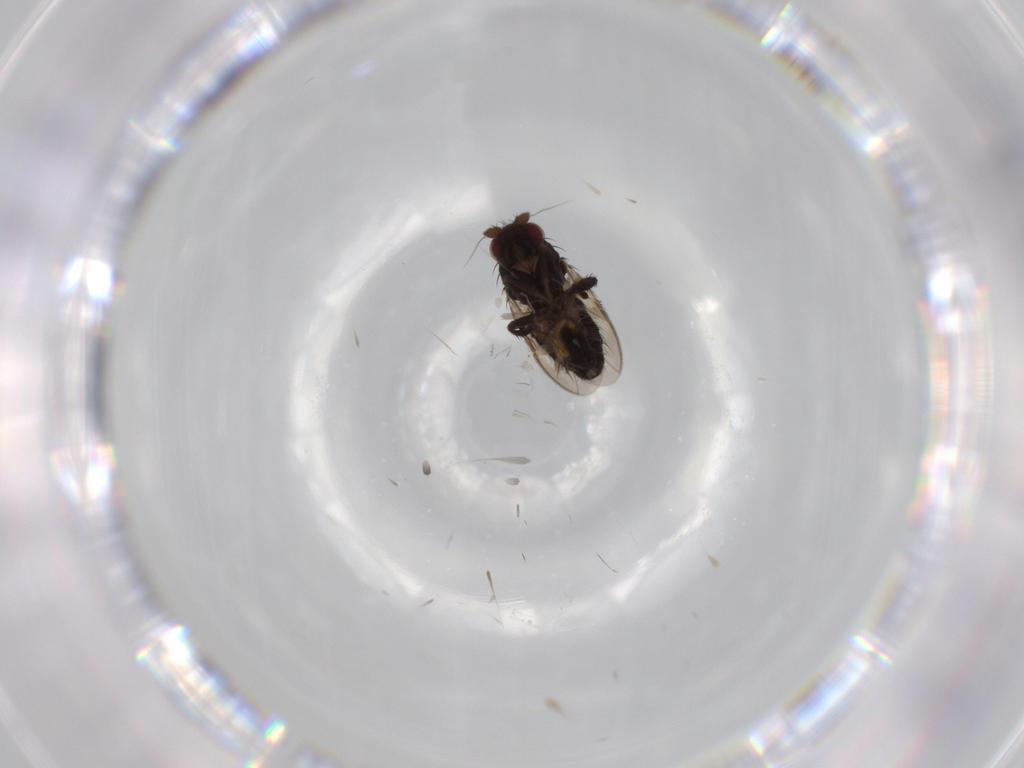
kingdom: Animalia
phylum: Arthropoda
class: Insecta
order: Diptera
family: Sphaeroceridae
